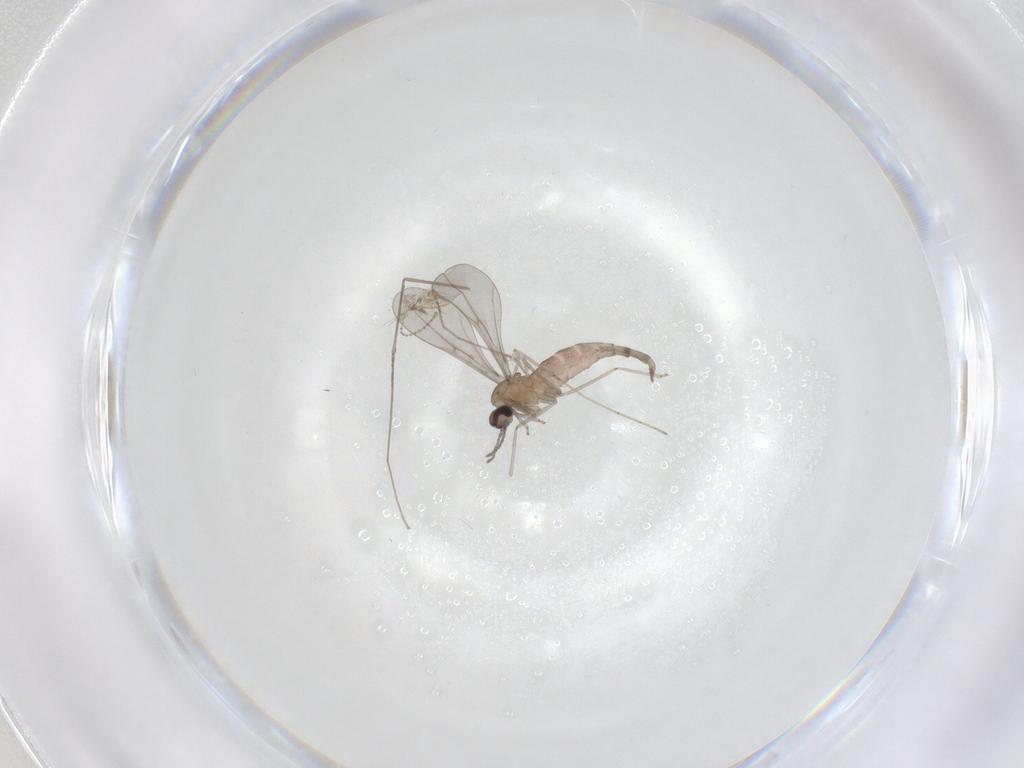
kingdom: Animalia
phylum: Arthropoda
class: Insecta
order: Diptera
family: Cecidomyiidae
